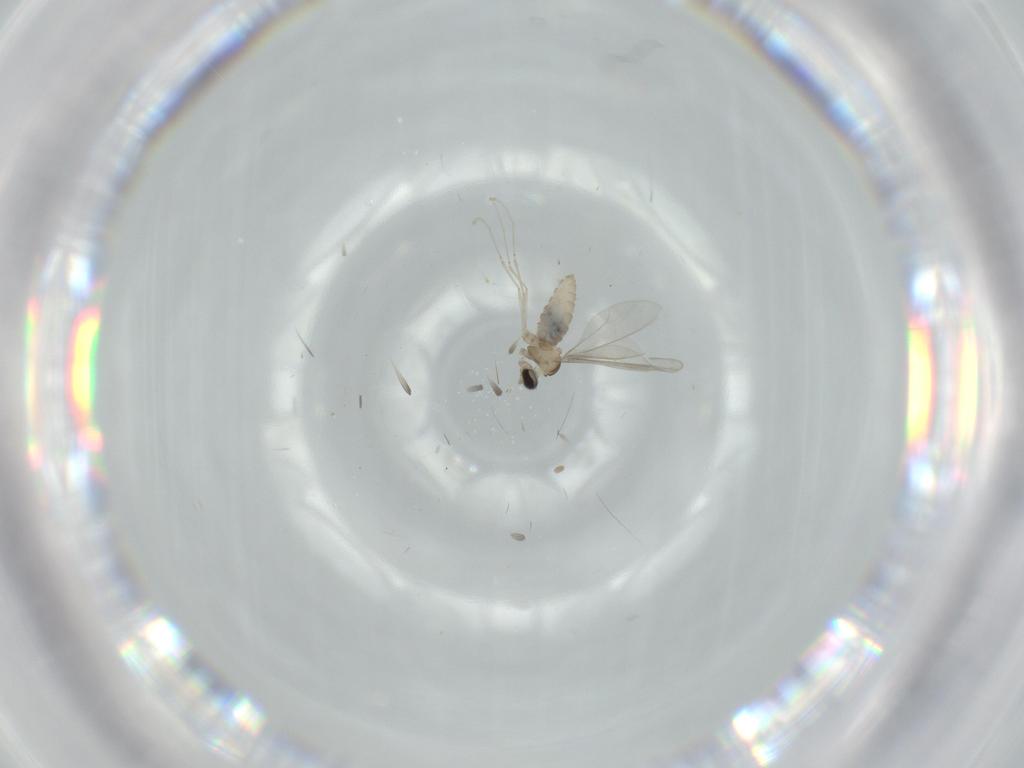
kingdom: Animalia
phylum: Arthropoda
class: Insecta
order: Diptera
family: Cecidomyiidae
